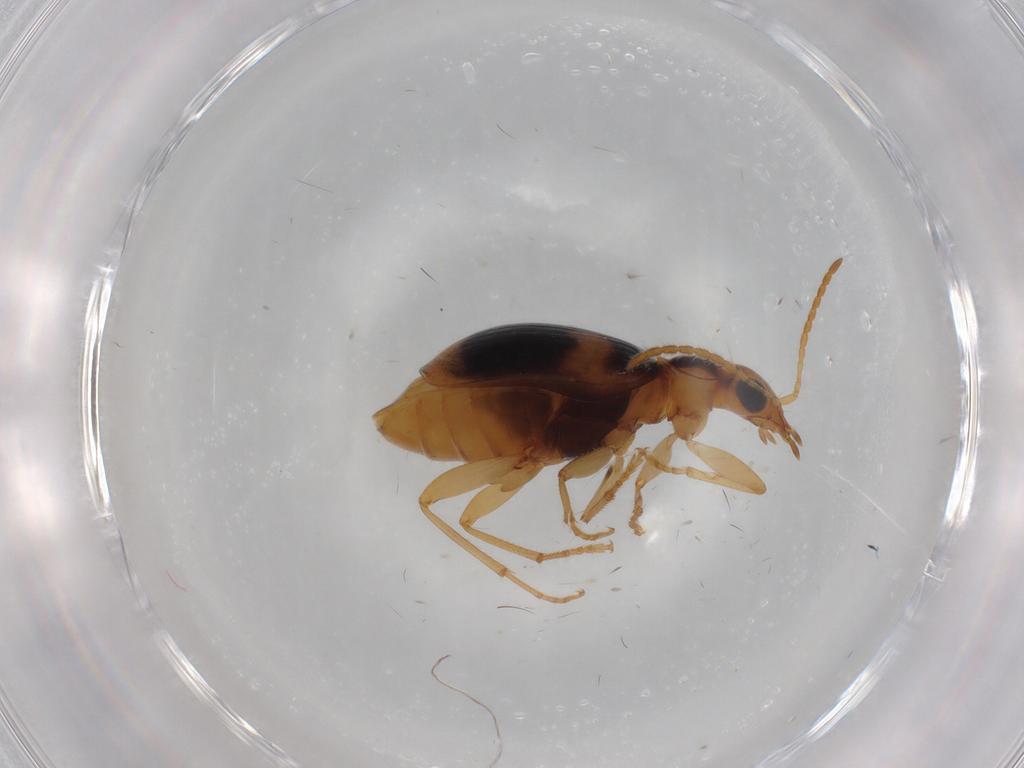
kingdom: Animalia
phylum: Arthropoda
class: Insecta
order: Coleoptera
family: Carabidae
